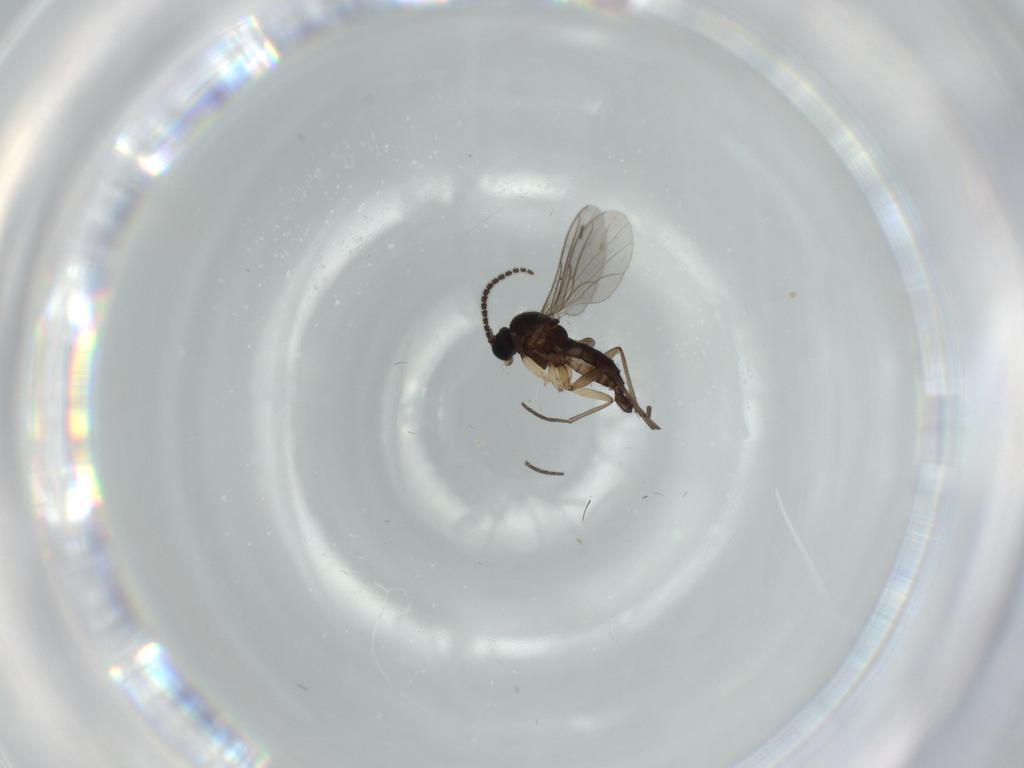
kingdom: Animalia
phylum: Arthropoda
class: Insecta
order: Diptera
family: Sciaridae
